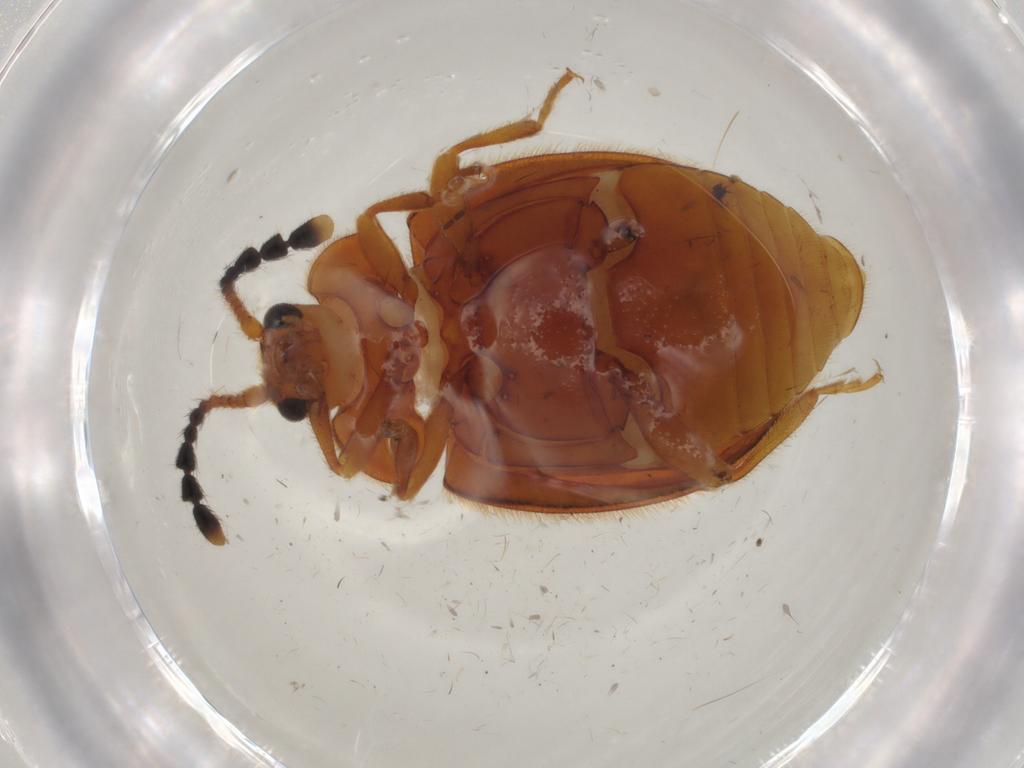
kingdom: Animalia
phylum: Arthropoda
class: Insecta
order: Coleoptera
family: Endomychidae
